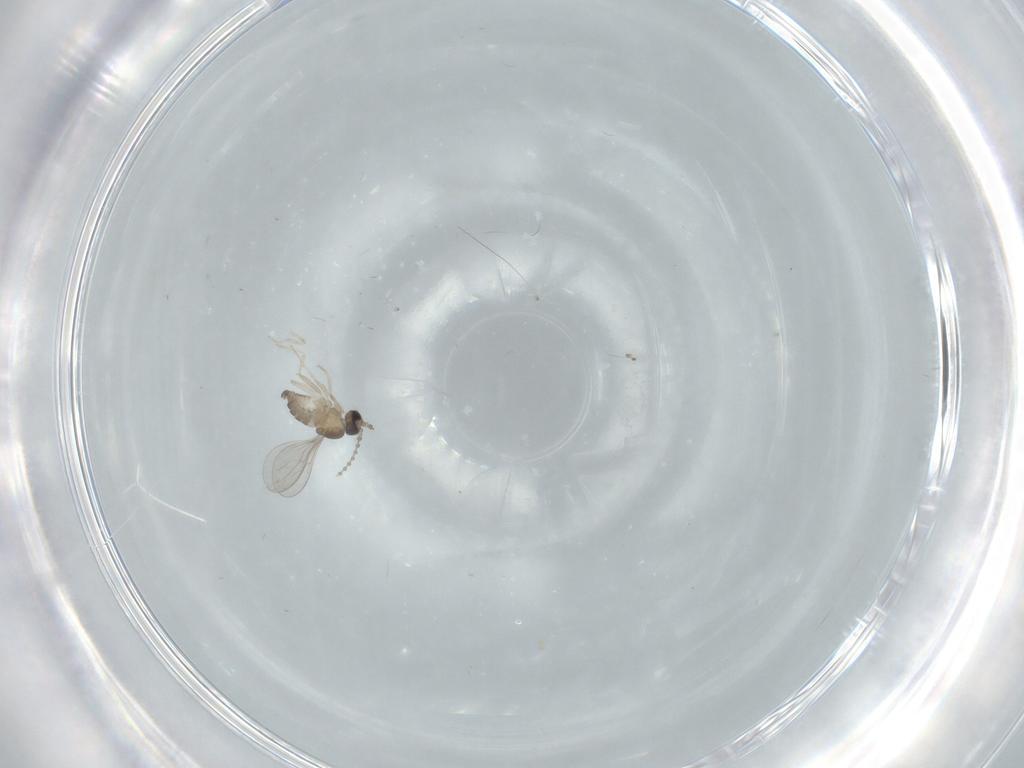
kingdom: Animalia
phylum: Arthropoda
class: Insecta
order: Diptera
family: Cecidomyiidae
